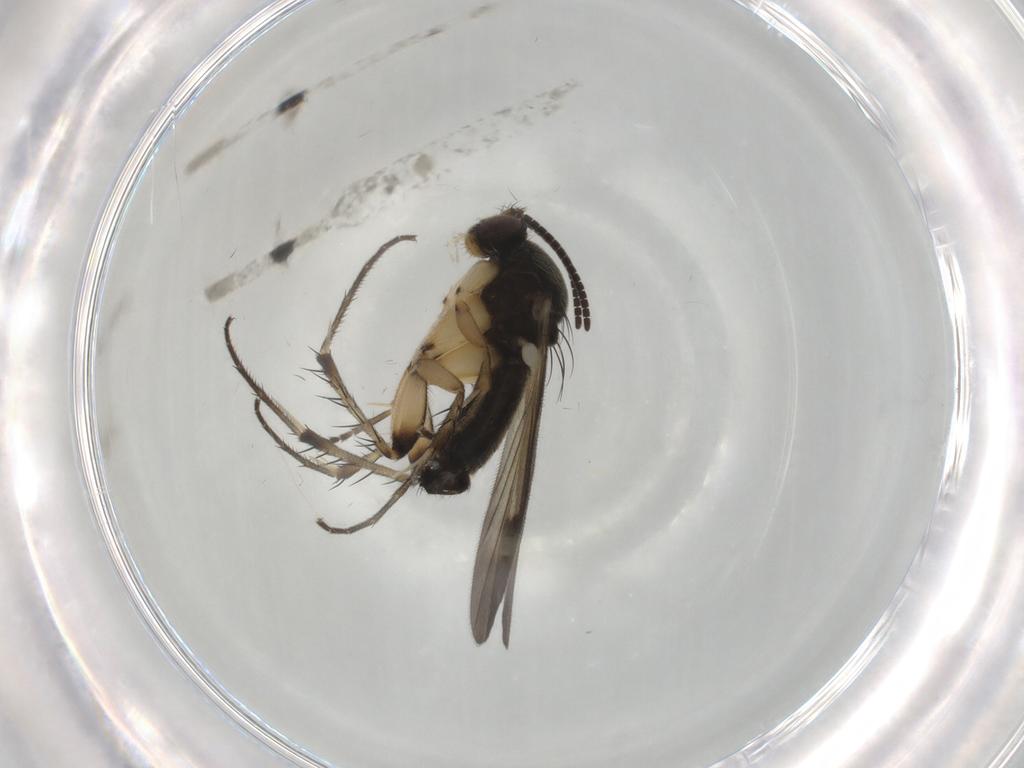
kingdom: Animalia
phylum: Arthropoda
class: Insecta
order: Diptera
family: Mycetophilidae
